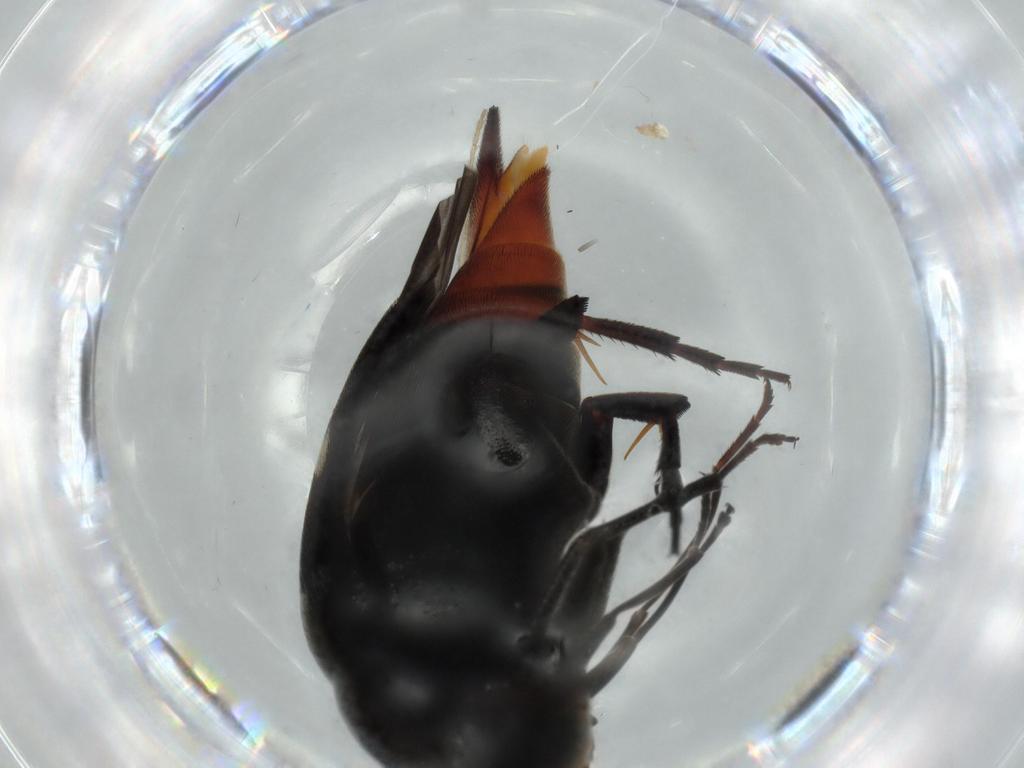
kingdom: Animalia
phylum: Arthropoda
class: Insecta
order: Coleoptera
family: Mordellidae
